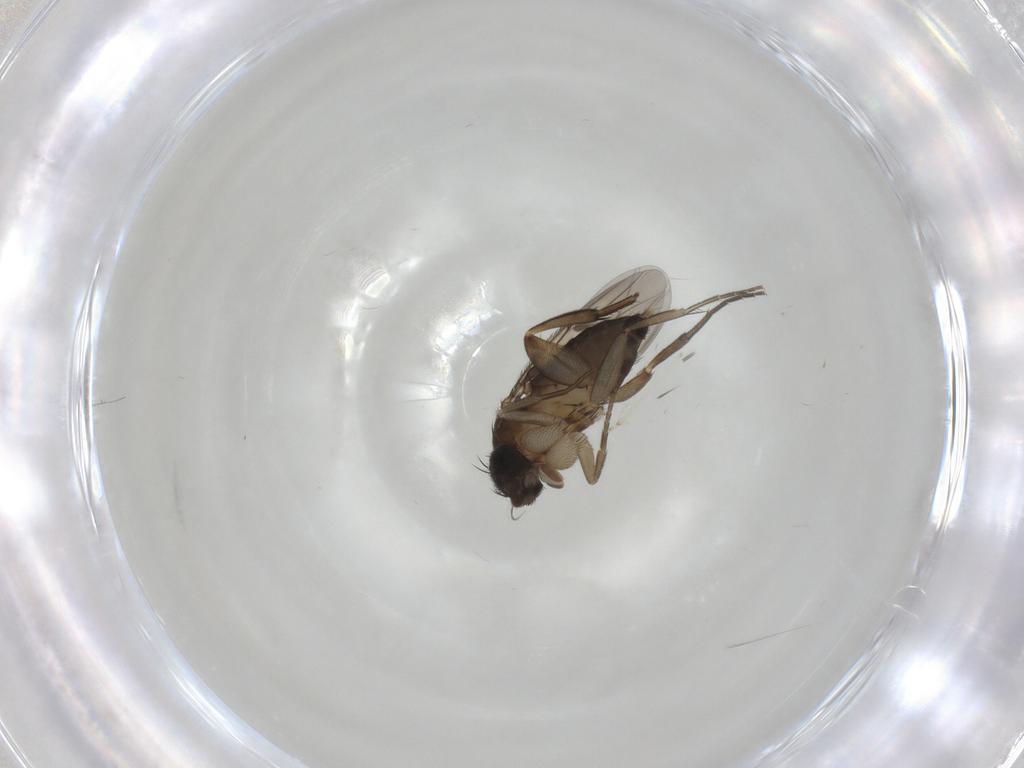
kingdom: Animalia
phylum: Arthropoda
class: Insecta
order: Diptera
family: Phoridae
